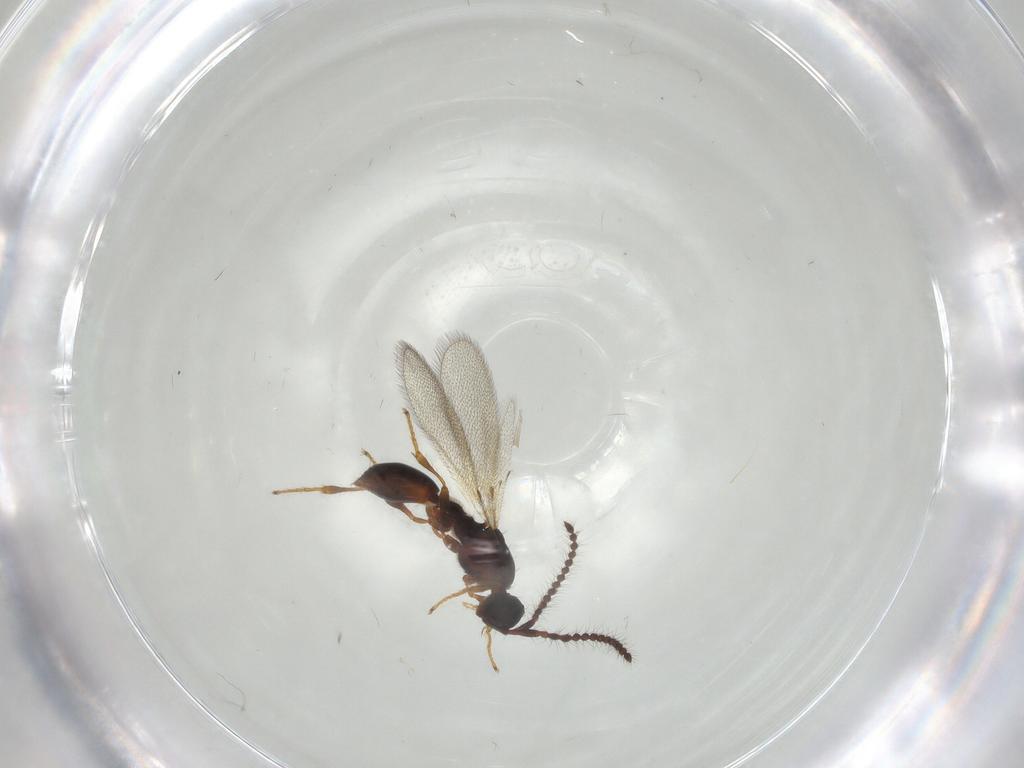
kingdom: Animalia
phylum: Arthropoda
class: Insecta
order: Hymenoptera
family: Diapriidae
